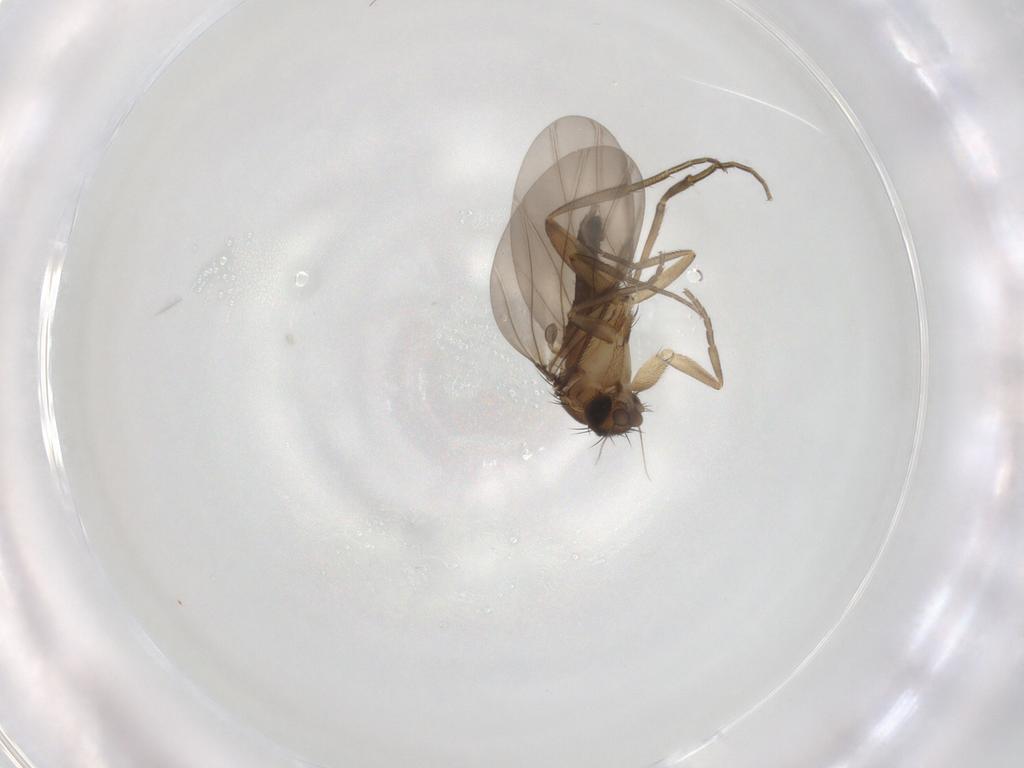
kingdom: Animalia
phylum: Arthropoda
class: Insecta
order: Diptera
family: Phoridae
